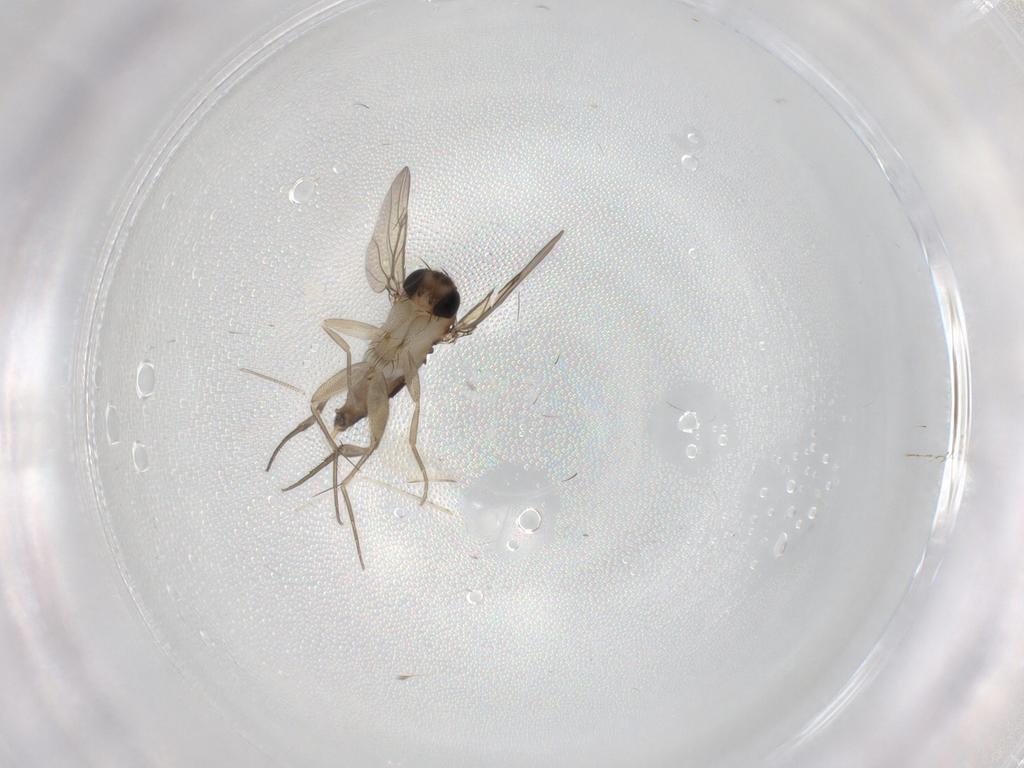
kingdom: Animalia
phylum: Arthropoda
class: Insecta
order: Diptera
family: Phoridae
